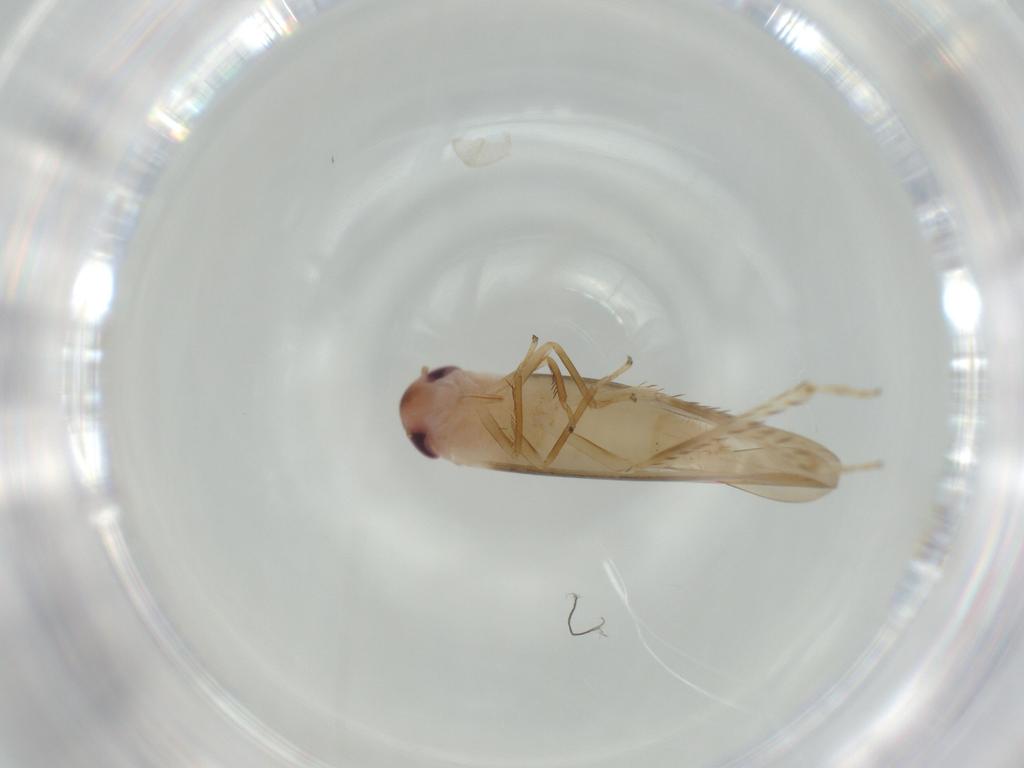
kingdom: Animalia
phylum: Arthropoda
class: Insecta
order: Hemiptera
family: Cicadellidae
